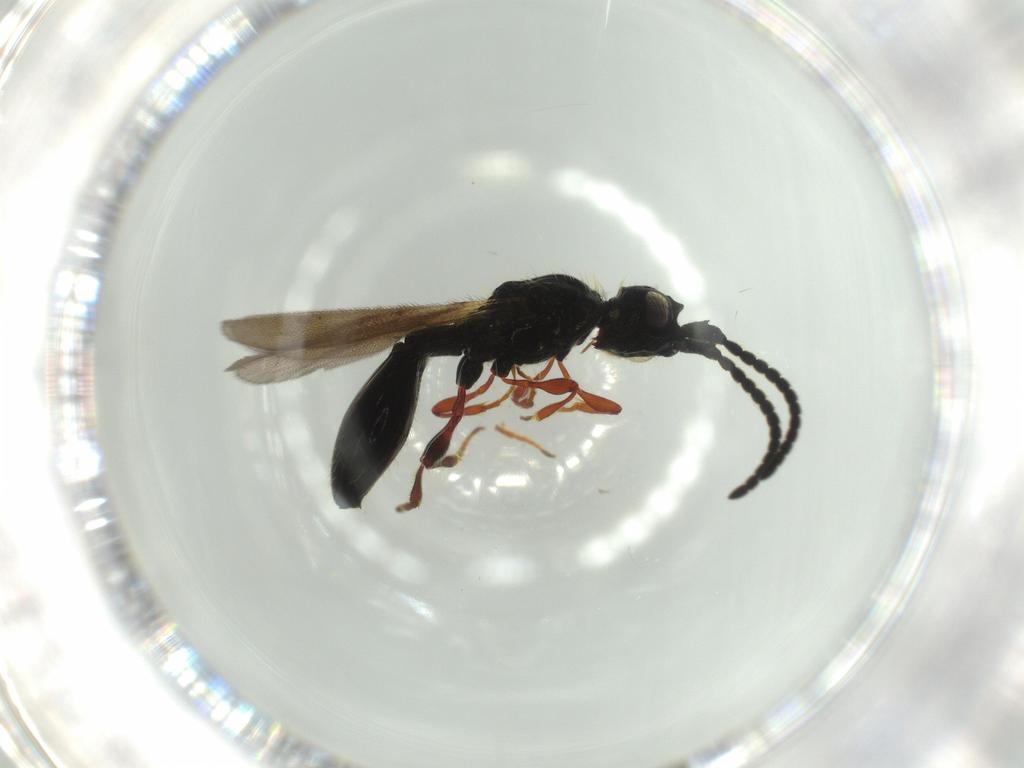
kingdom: Animalia
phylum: Arthropoda
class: Insecta
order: Hymenoptera
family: Diapriidae
